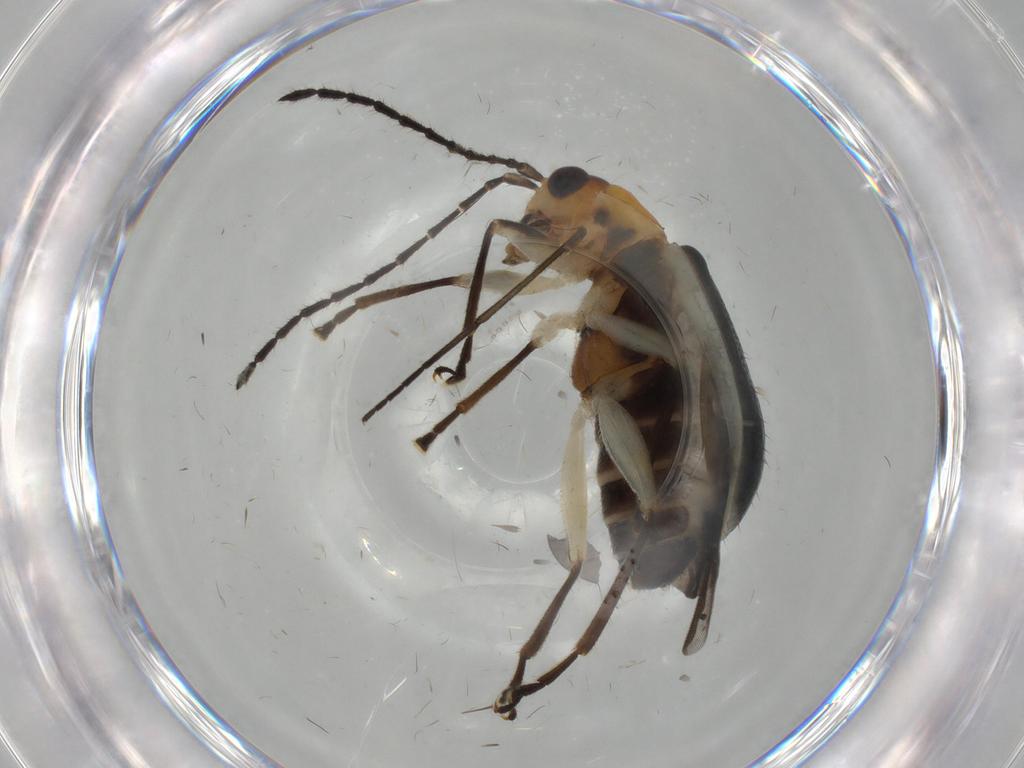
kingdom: Animalia
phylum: Arthropoda
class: Insecta
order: Coleoptera
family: Chrysomelidae
